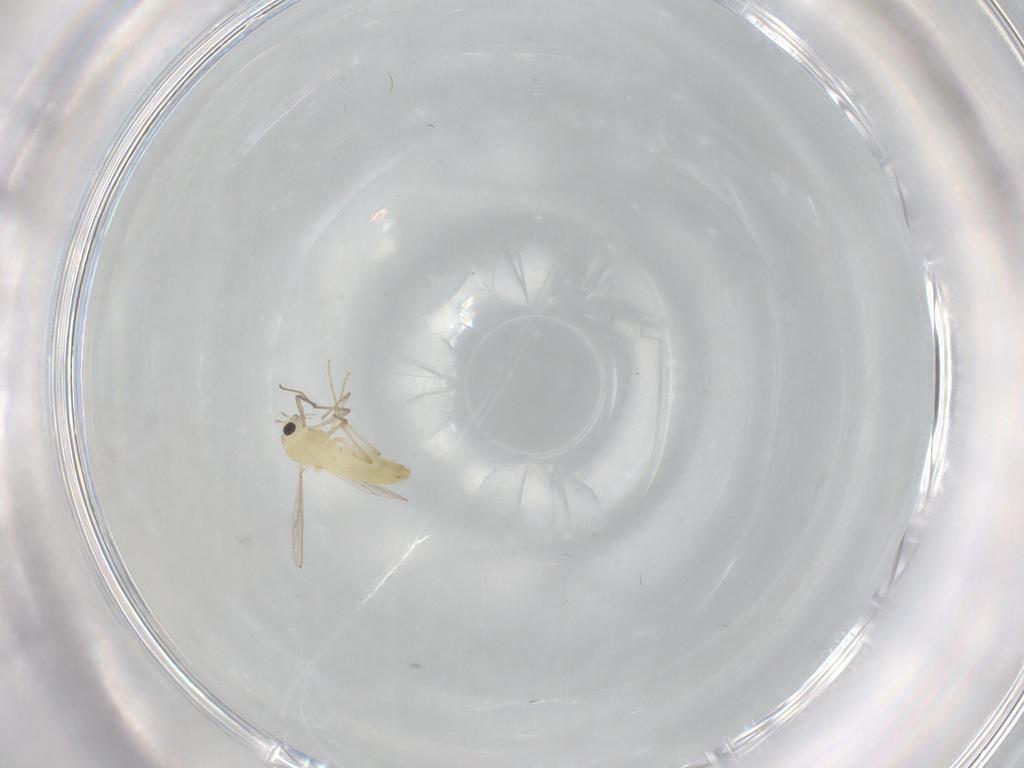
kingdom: Animalia
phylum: Arthropoda
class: Insecta
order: Diptera
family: Chironomidae
